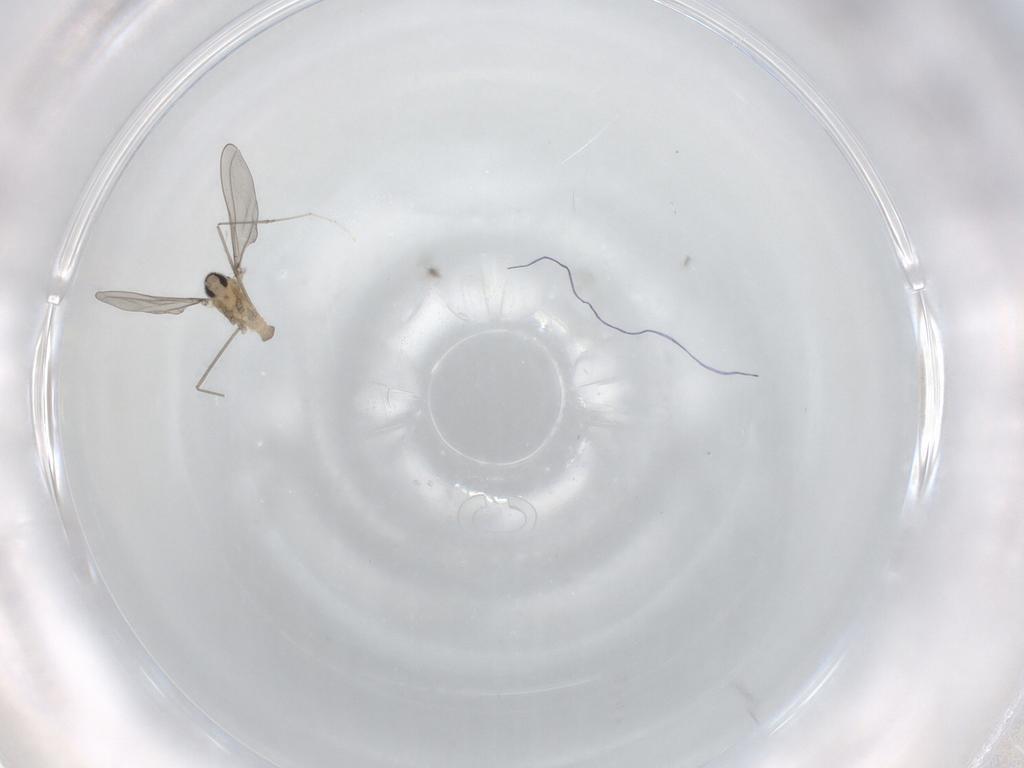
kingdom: Animalia
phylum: Arthropoda
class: Insecta
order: Diptera
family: Cecidomyiidae
